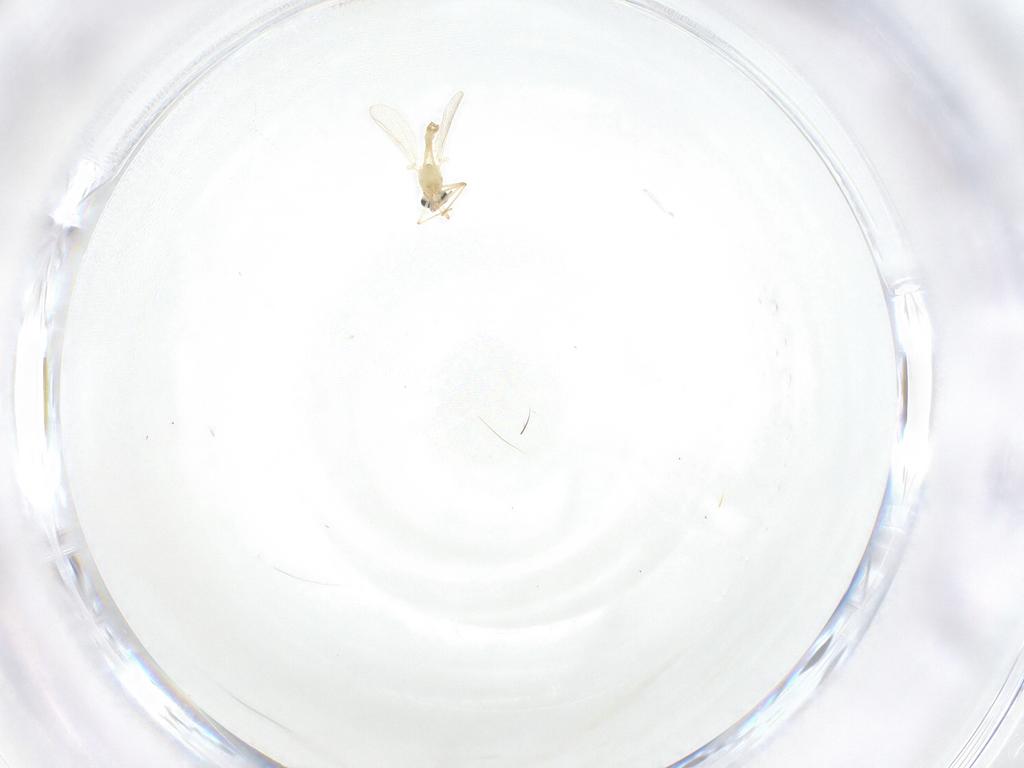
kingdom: Animalia
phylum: Arthropoda
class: Insecta
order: Diptera
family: Chironomidae
